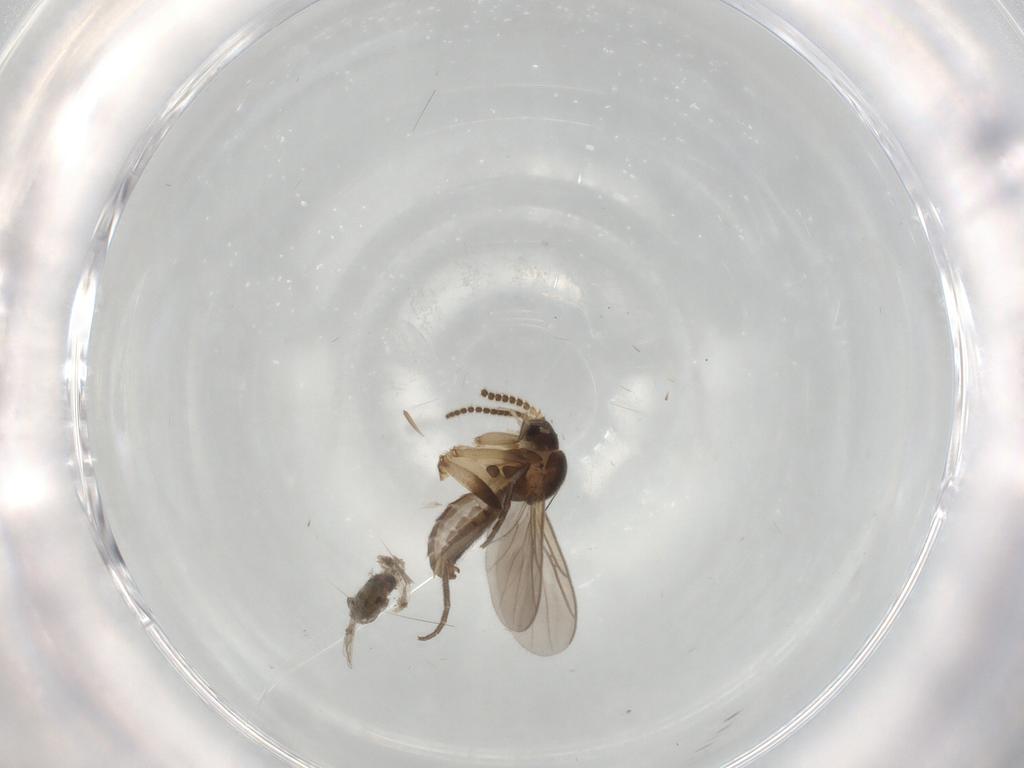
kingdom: Animalia
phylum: Arthropoda
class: Insecta
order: Diptera
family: Chironomidae
